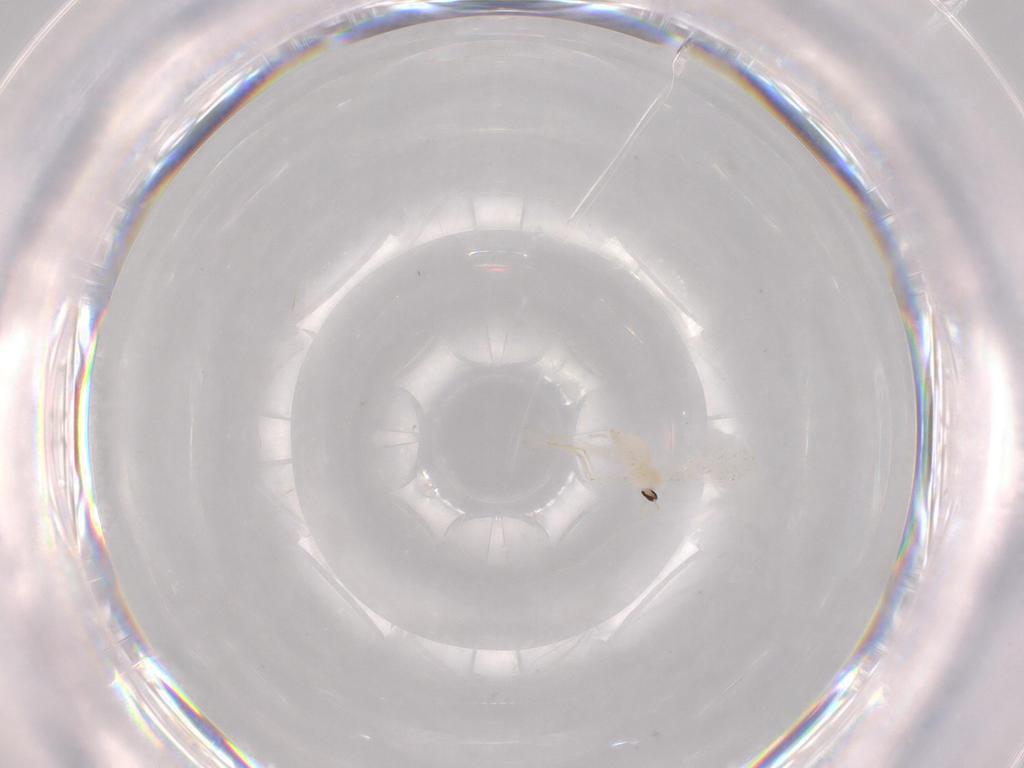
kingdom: Animalia
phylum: Arthropoda
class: Insecta
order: Diptera
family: Cecidomyiidae
